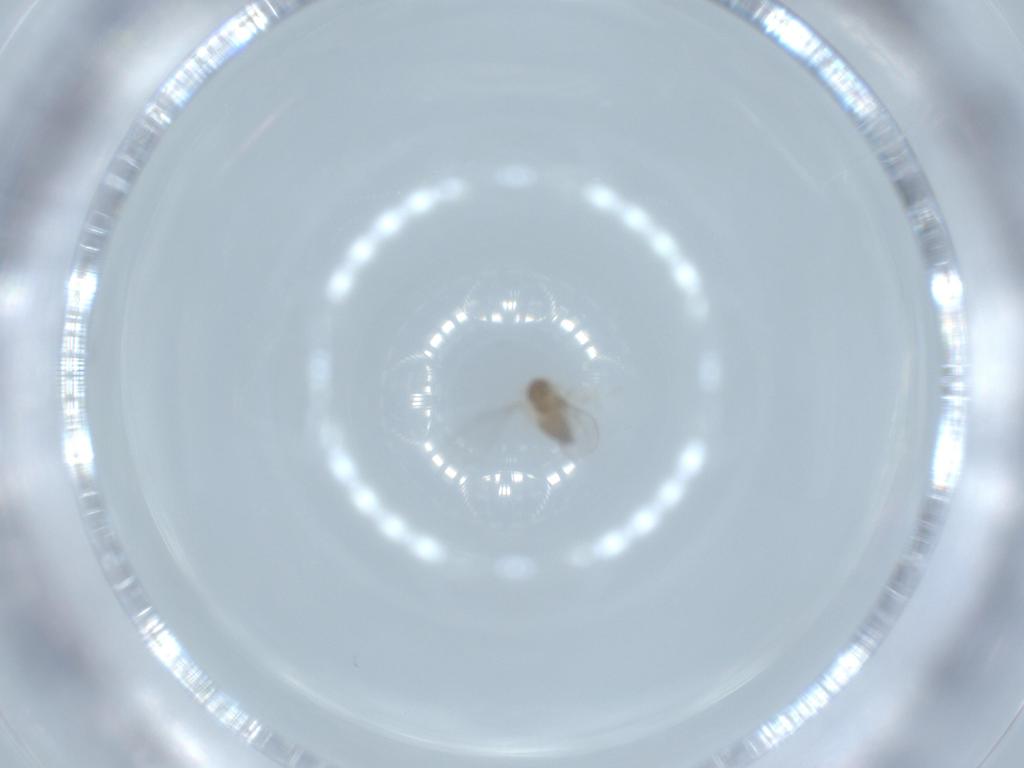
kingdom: Animalia
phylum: Arthropoda
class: Insecta
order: Diptera
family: Cecidomyiidae
